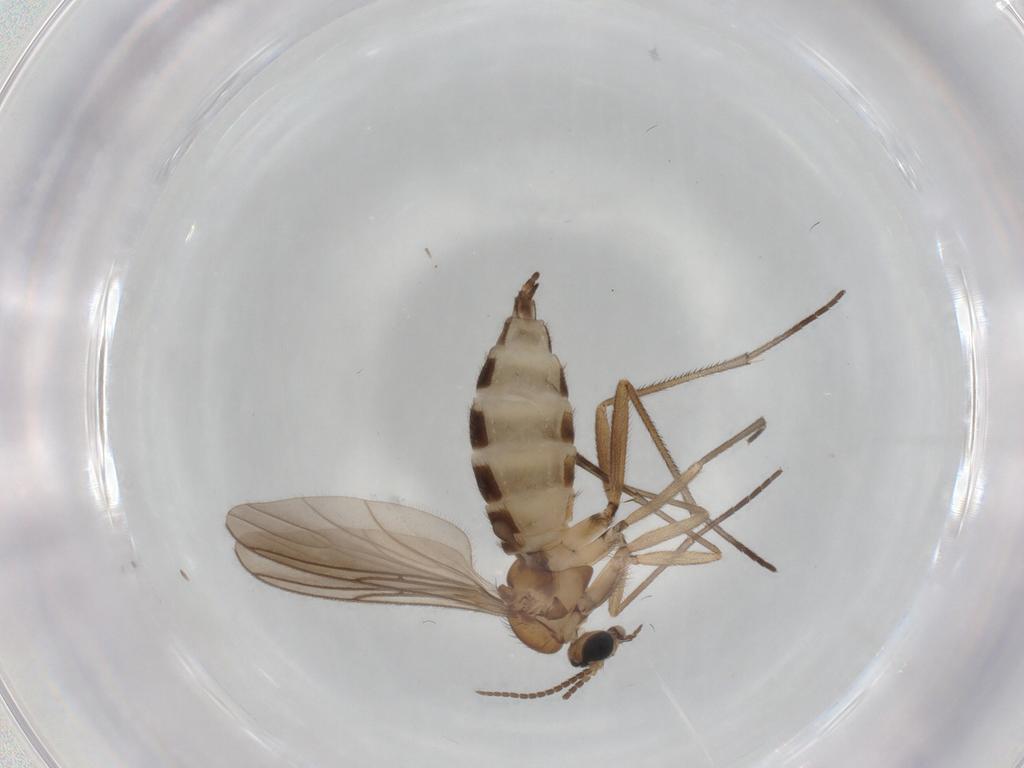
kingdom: Animalia
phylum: Arthropoda
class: Insecta
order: Diptera
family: Sciaridae
